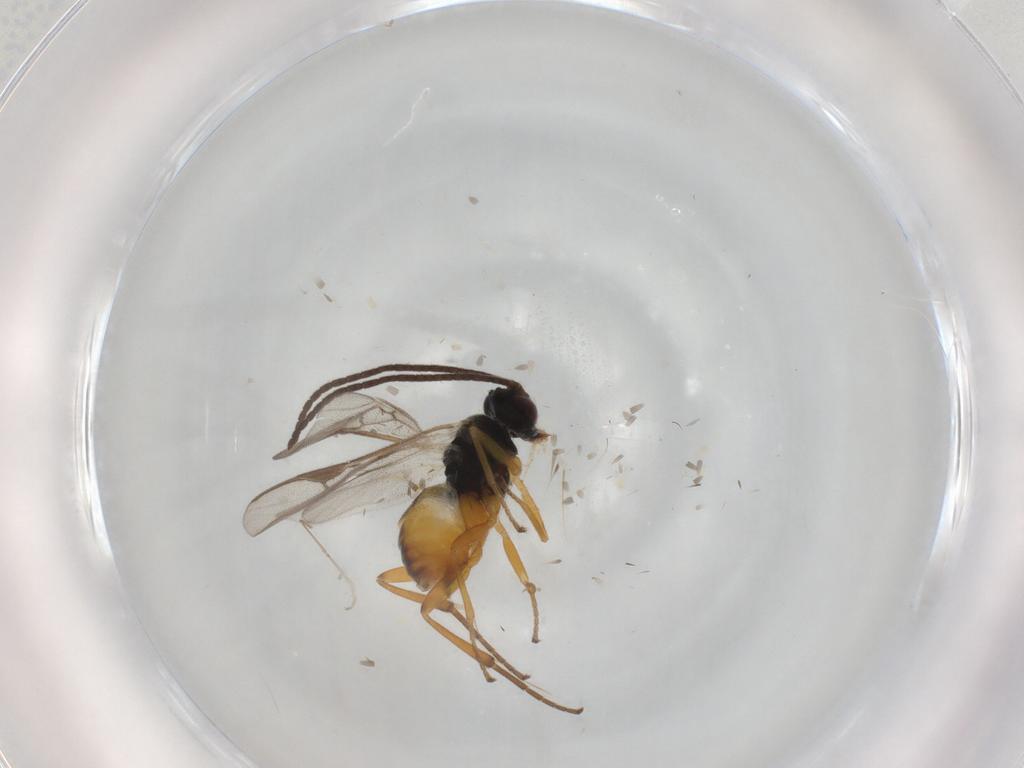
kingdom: Animalia
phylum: Arthropoda
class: Insecta
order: Hymenoptera
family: Braconidae
